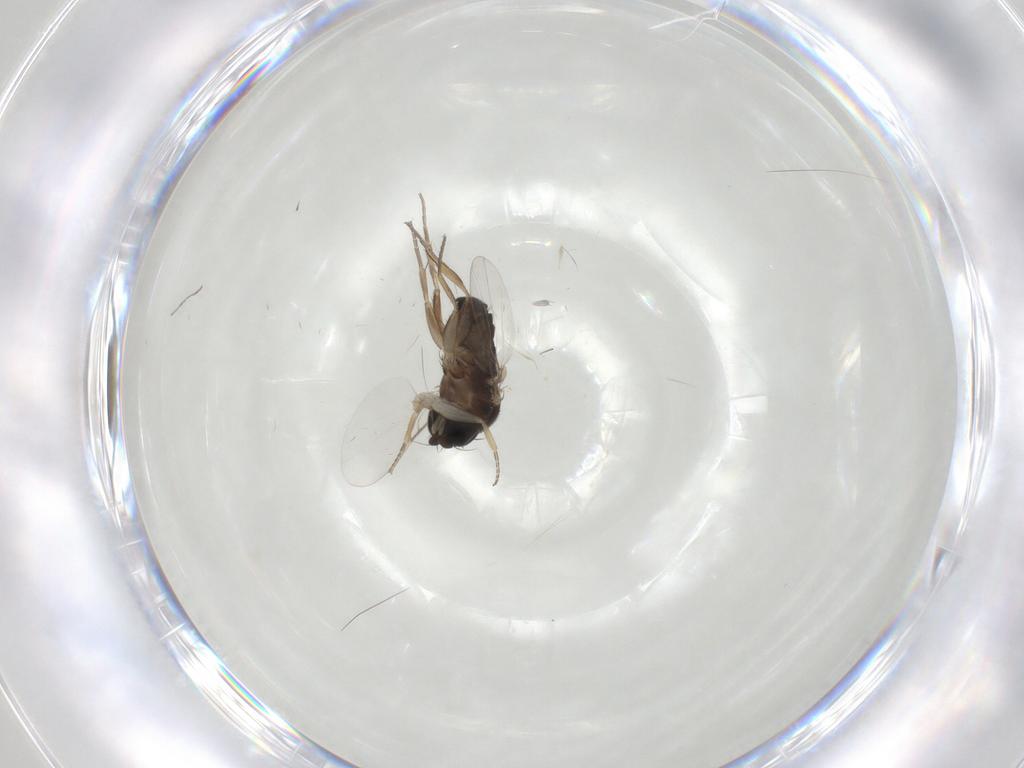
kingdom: Animalia
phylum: Arthropoda
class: Insecta
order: Diptera
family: Phoridae
